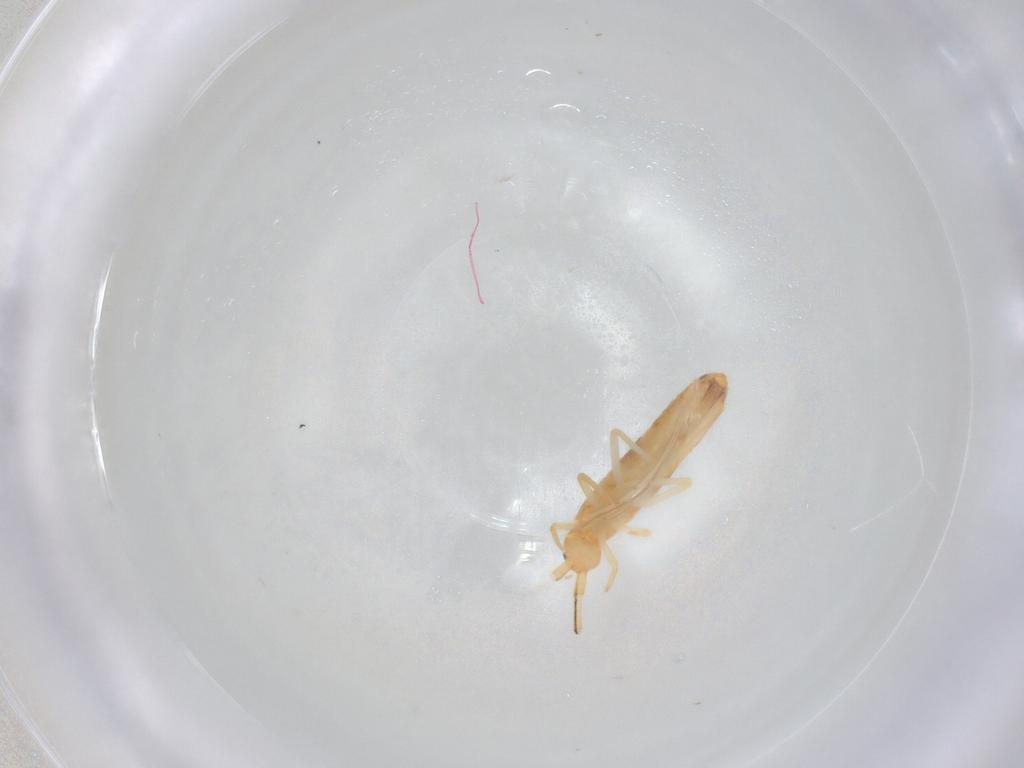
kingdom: Animalia
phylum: Arthropoda
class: Collembola
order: Entomobryomorpha
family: Entomobryidae
